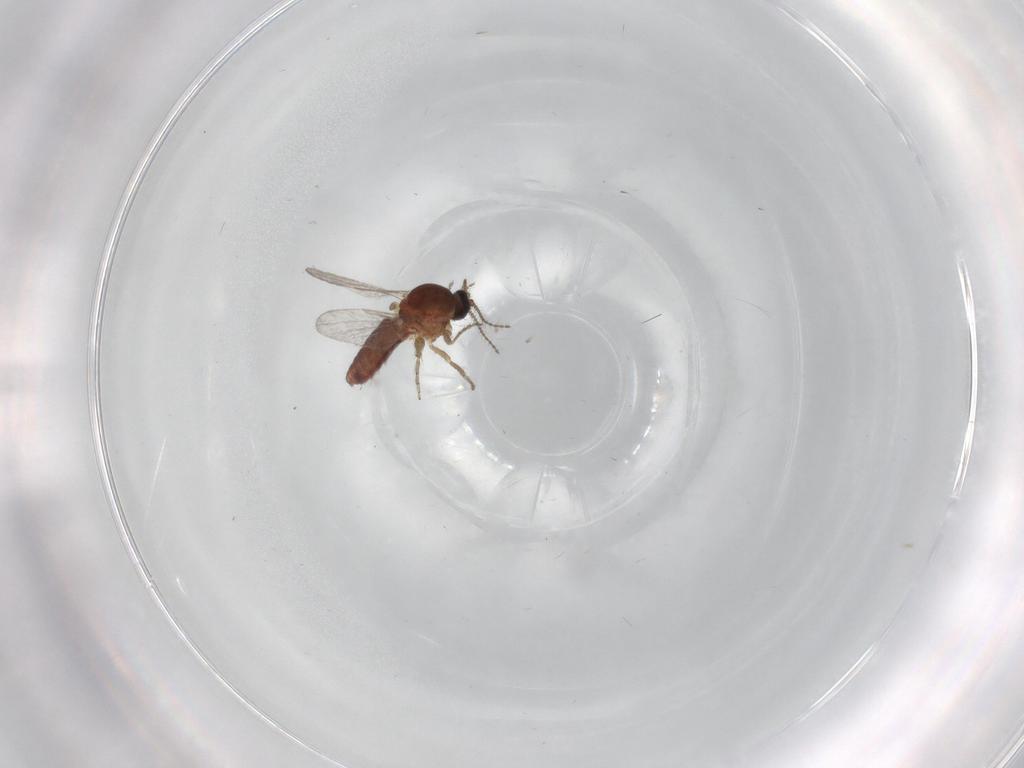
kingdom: Animalia
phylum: Arthropoda
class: Insecta
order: Diptera
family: Ceratopogonidae
